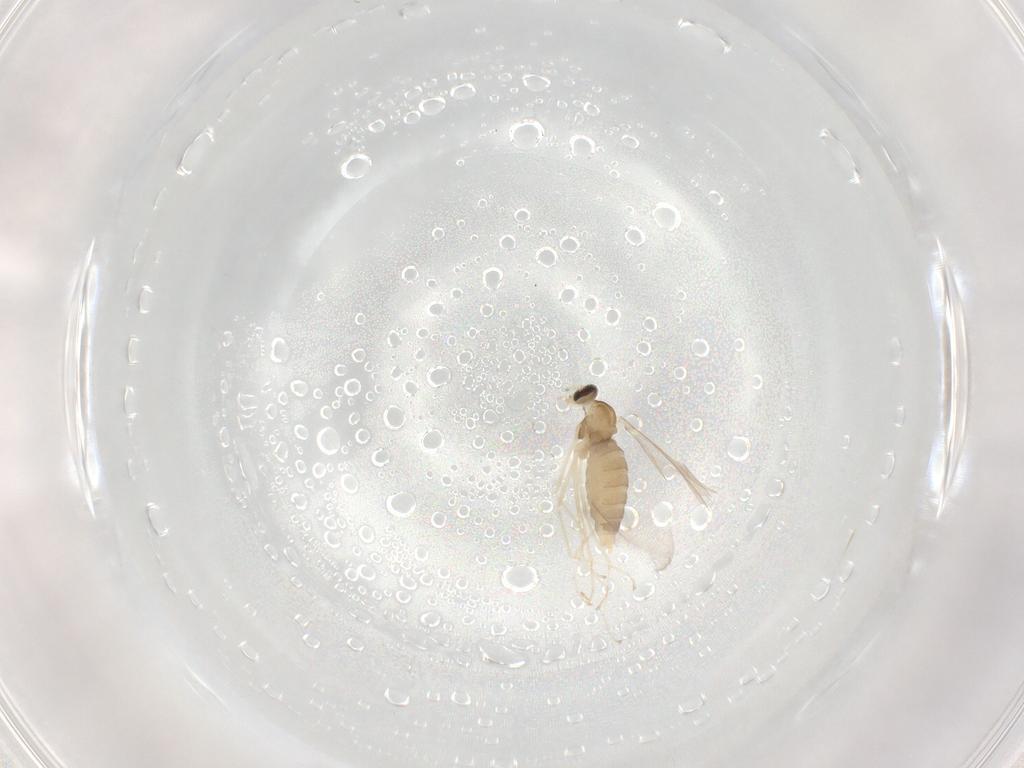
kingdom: Animalia
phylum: Arthropoda
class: Insecta
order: Diptera
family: Cecidomyiidae
